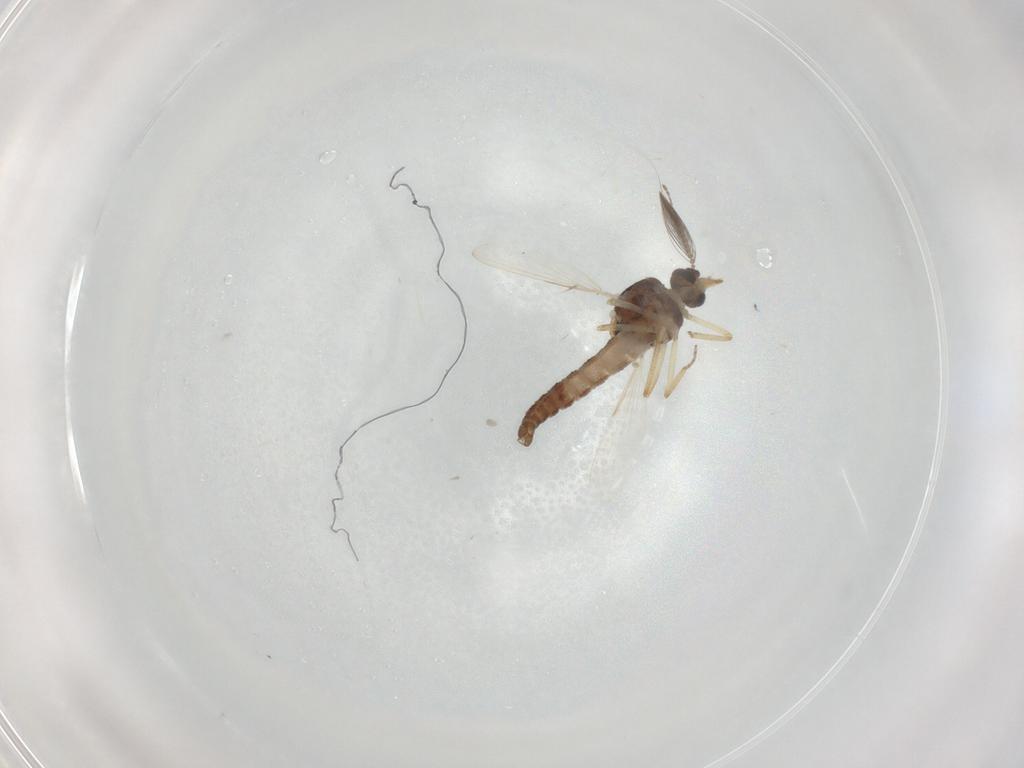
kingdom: Animalia
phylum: Arthropoda
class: Insecta
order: Diptera
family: Ceratopogonidae
